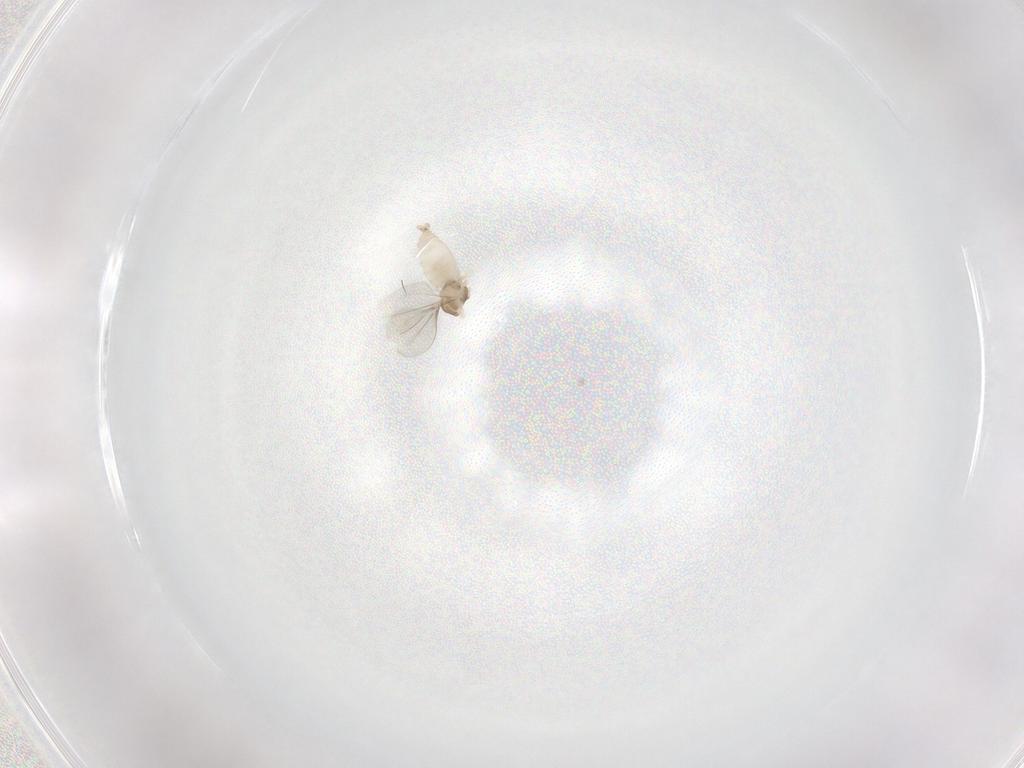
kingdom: Animalia
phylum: Arthropoda
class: Insecta
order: Diptera
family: Cecidomyiidae
